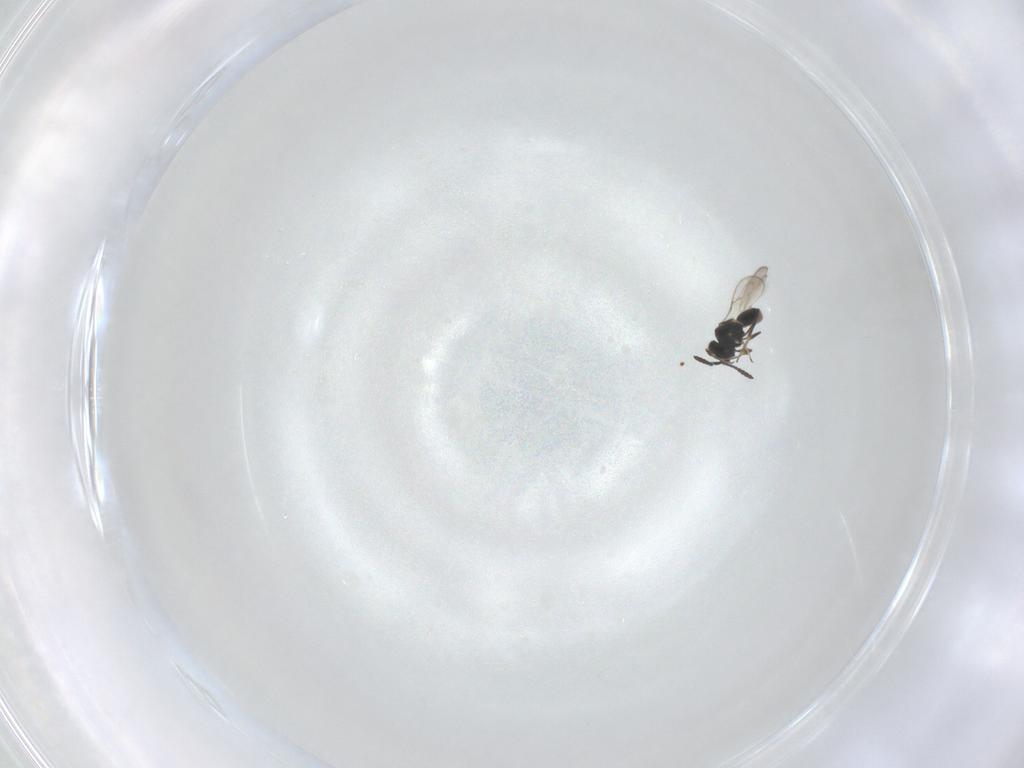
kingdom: Animalia
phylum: Arthropoda
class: Insecta
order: Hymenoptera
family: Scelionidae
